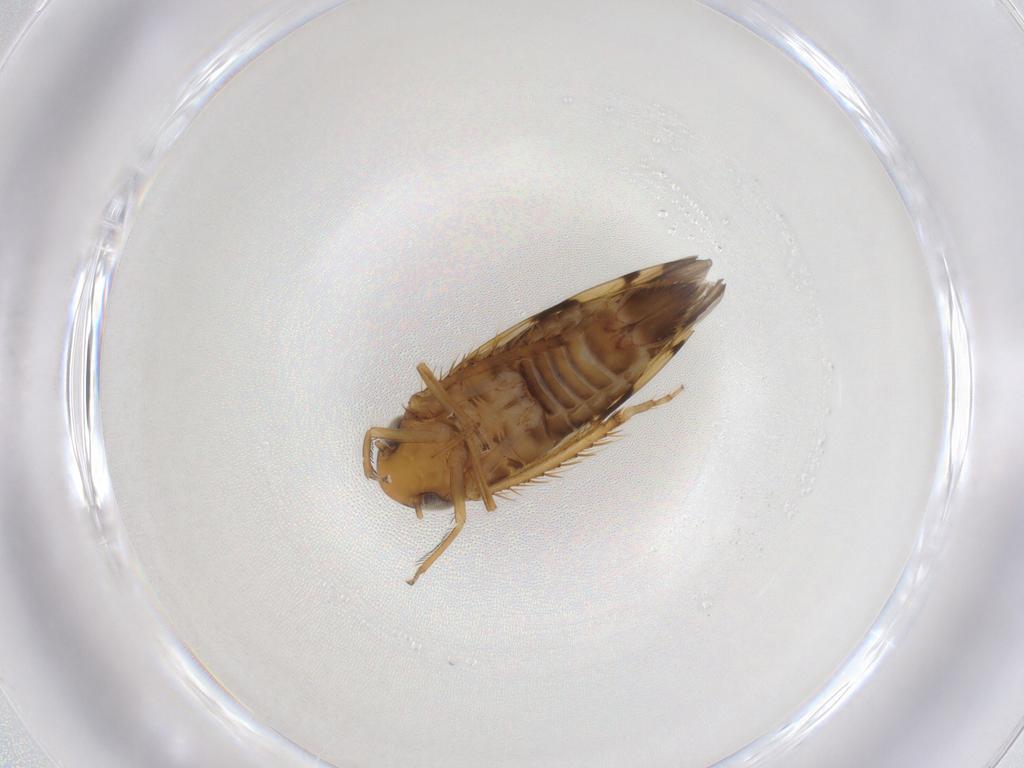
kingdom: Animalia
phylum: Arthropoda
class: Insecta
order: Hemiptera
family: Cicadellidae
